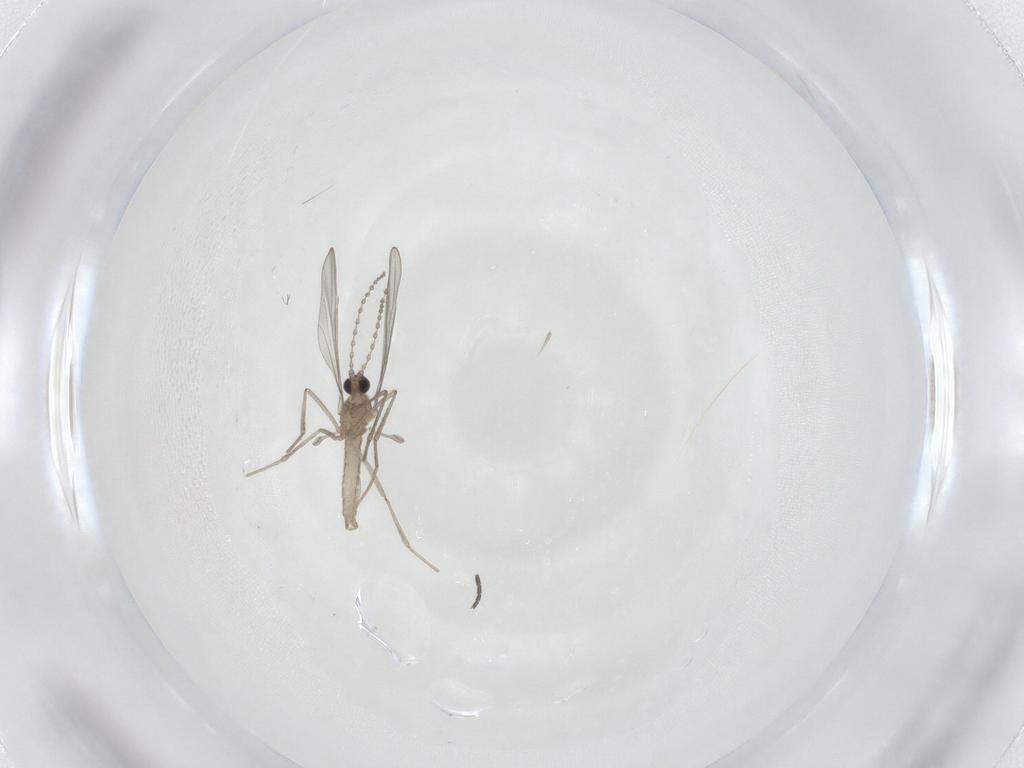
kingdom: Animalia
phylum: Arthropoda
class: Insecta
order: Diptera
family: Cecidomyiidae
